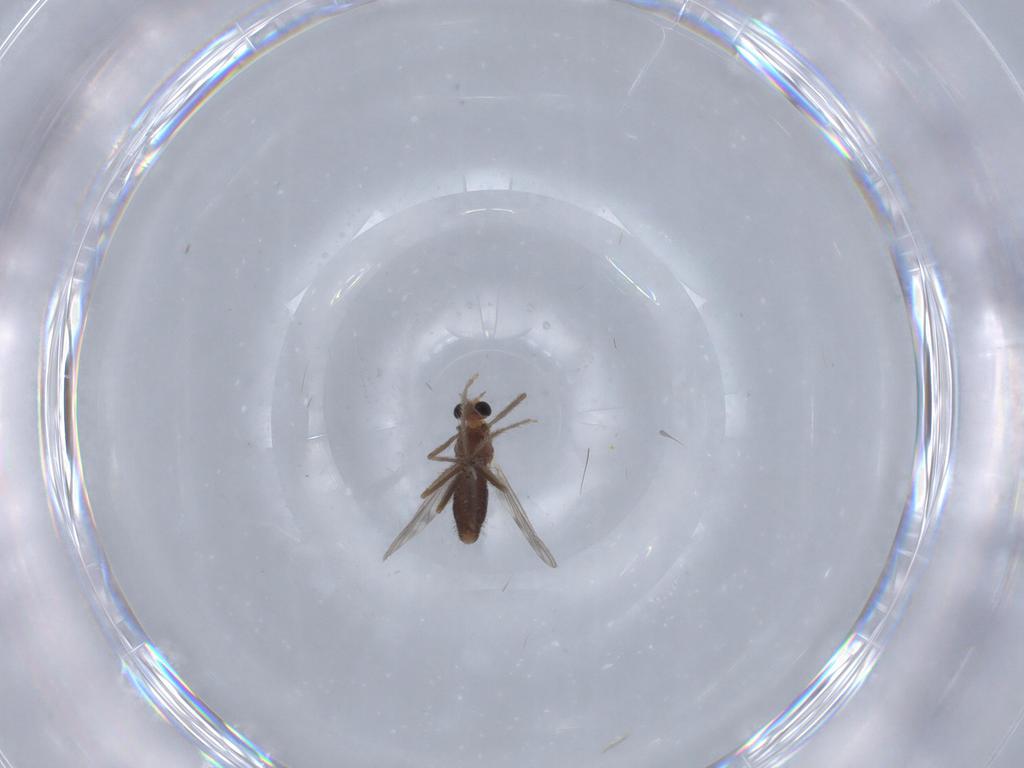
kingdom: Animalia
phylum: Arthropoda
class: Insecta
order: Diptera
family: Chironomidae
